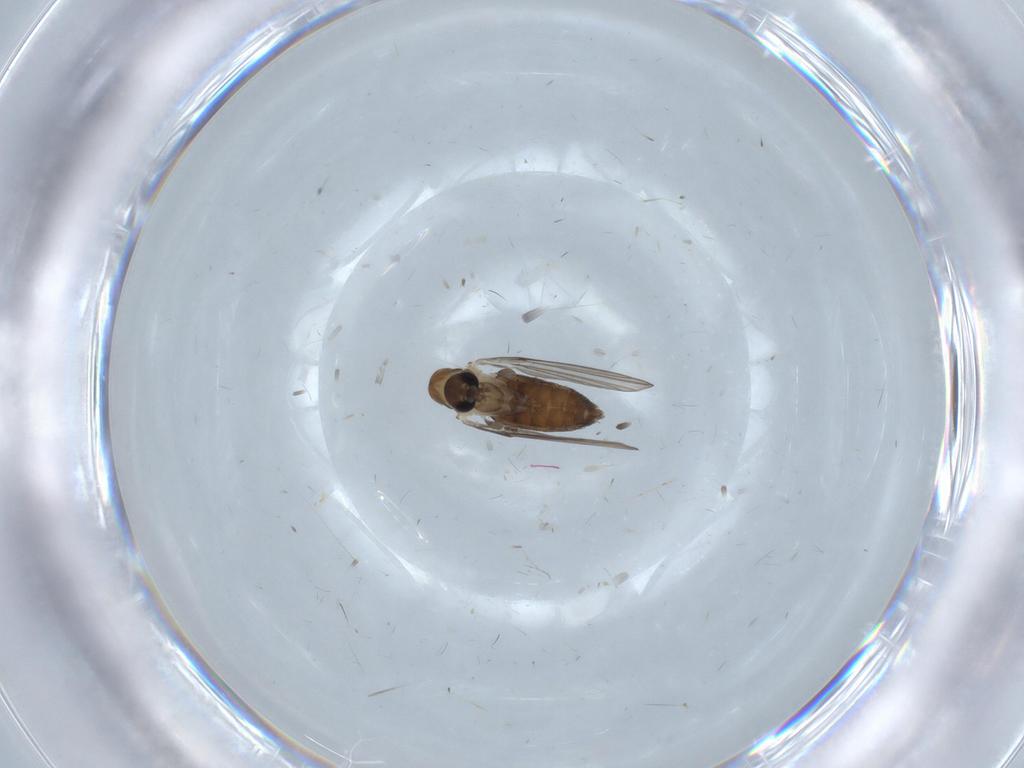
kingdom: Animalia
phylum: Arthropoda
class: Insecta
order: Diptera
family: Psychodidae
